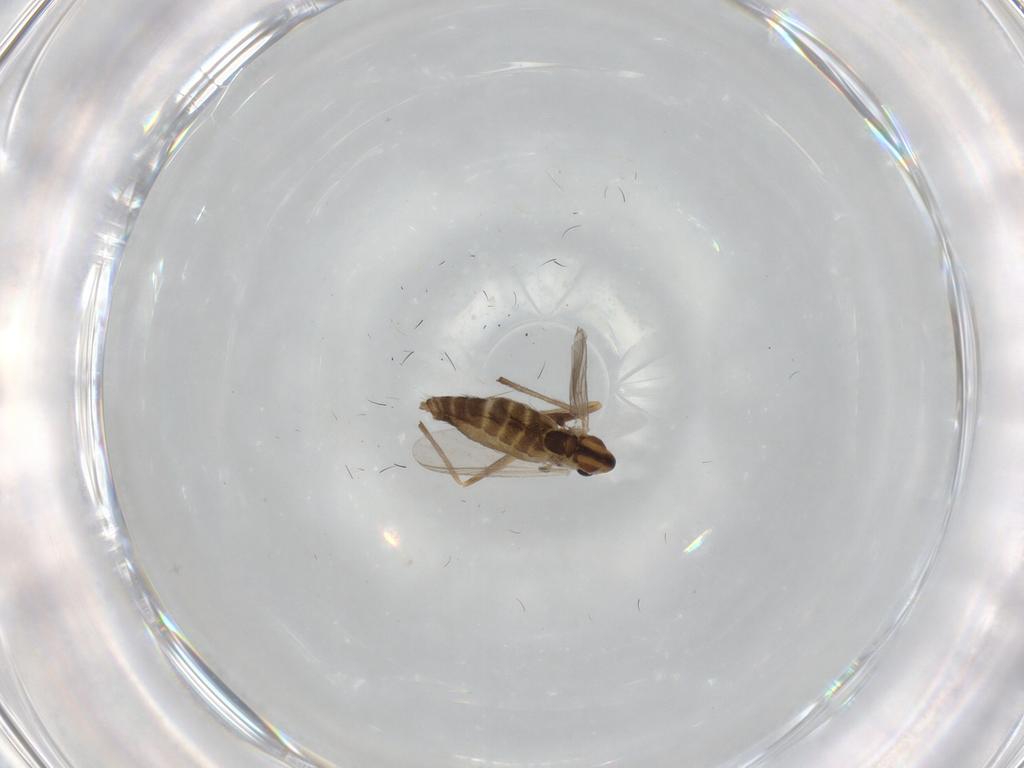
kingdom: Animalia
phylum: Arthropoda
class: Insecta
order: Diptera
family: Chironomidae
